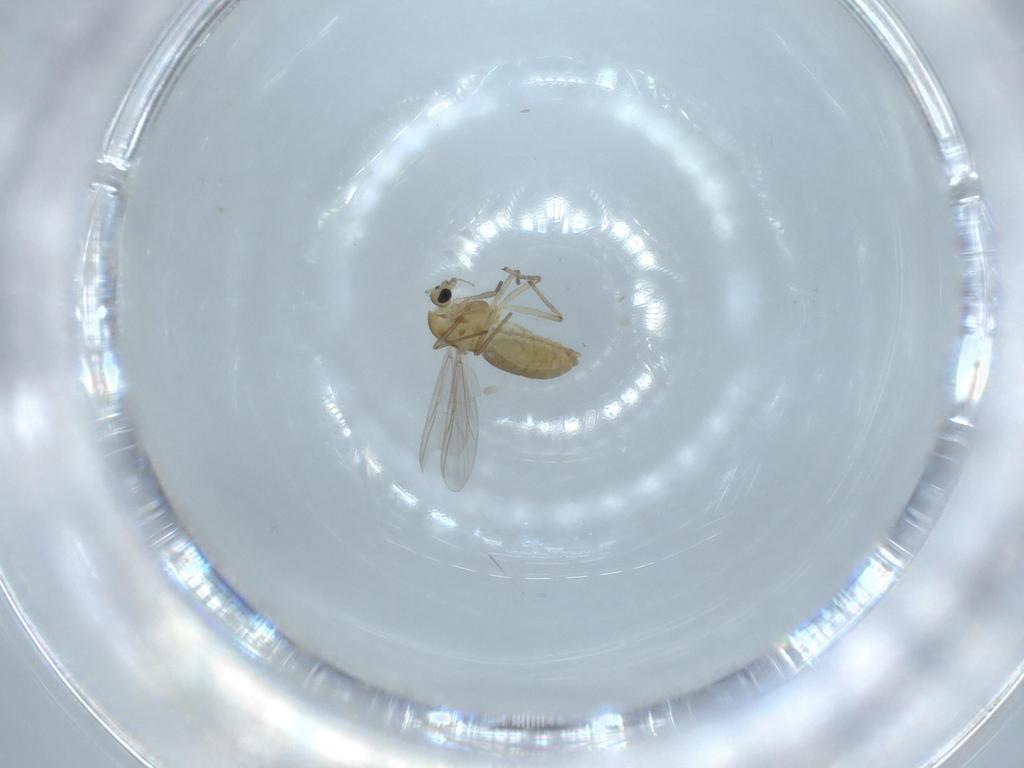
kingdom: Animalia
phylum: Arthropoda
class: Insecta
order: Diptera
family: Chironomidae
